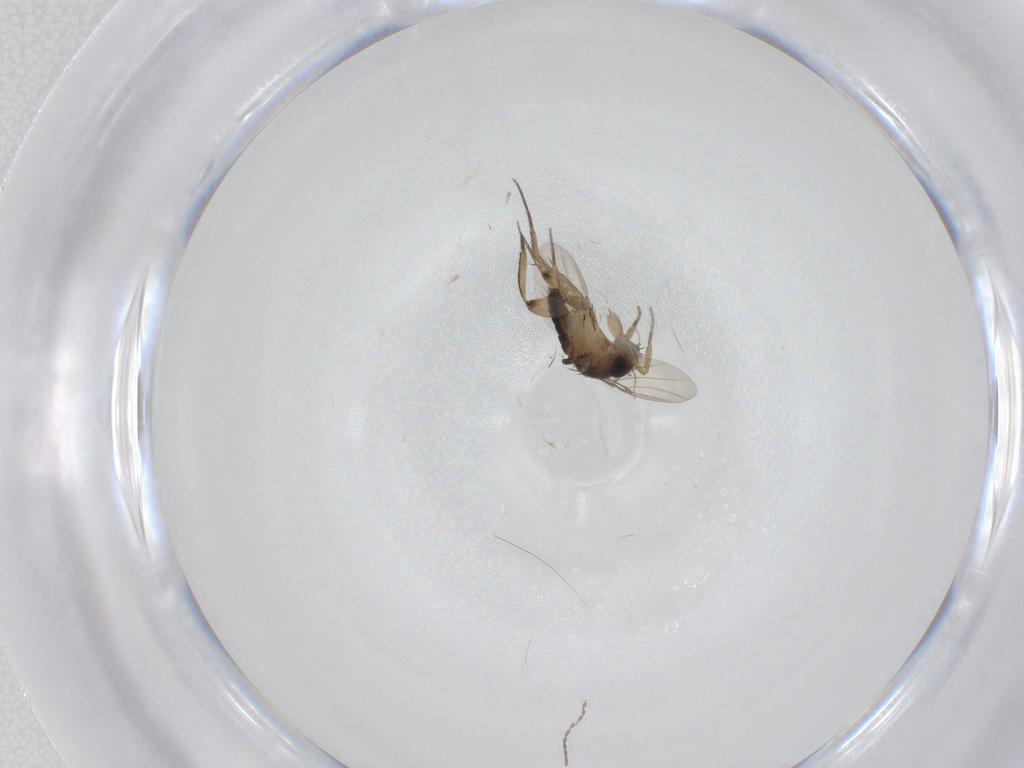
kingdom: Animalia
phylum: Arthropoda
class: Insecta
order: Diptera
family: Phoridae
